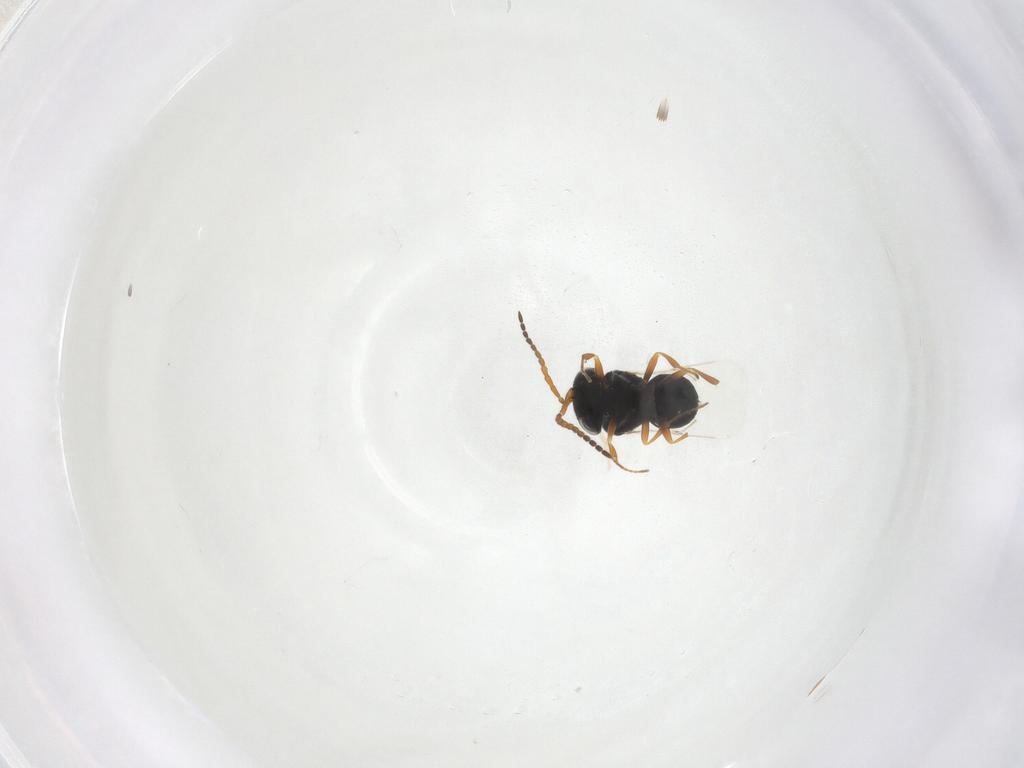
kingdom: Animalia
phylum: Arthropoda
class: Insecta
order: Hymenoptera
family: Scelionidae
